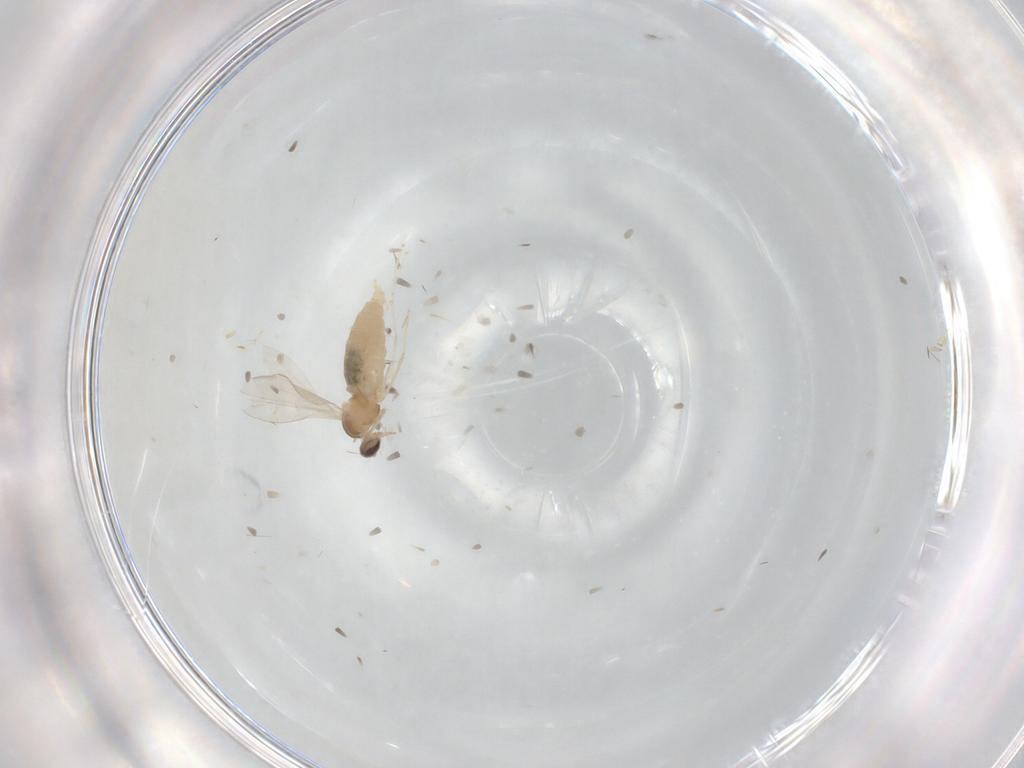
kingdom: Animalia
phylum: Arthropoda
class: Insecta
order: Diptera
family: Cecidomyiidae
